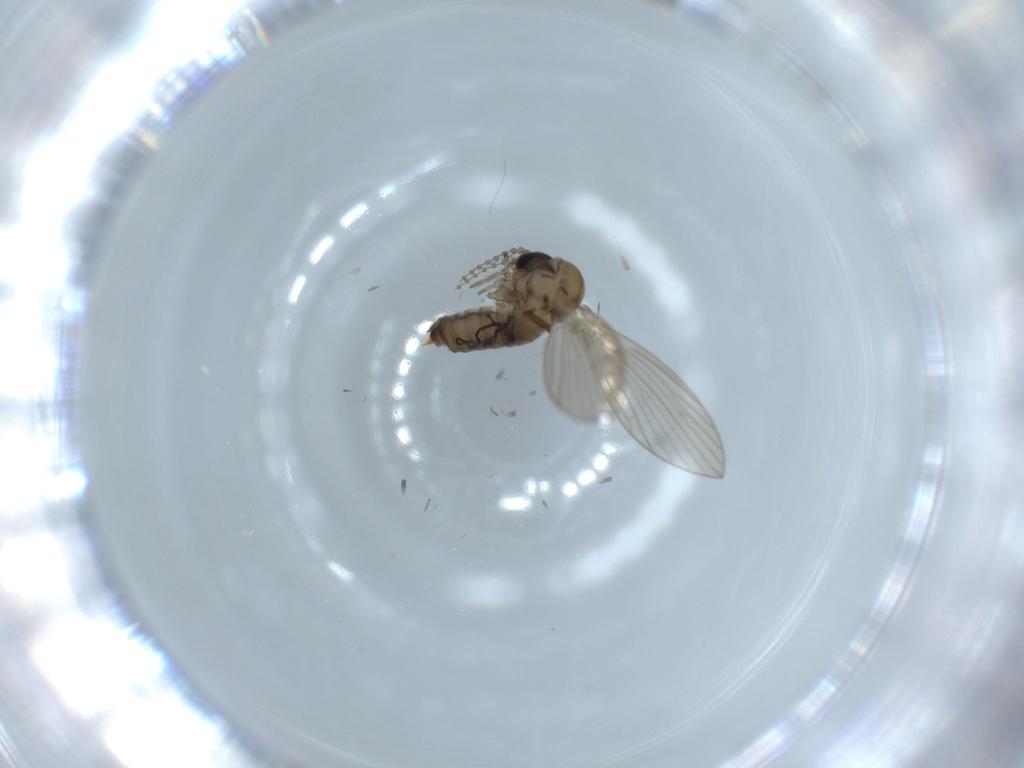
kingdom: Animalia
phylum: Arthropoda
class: Insecta
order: Diptera
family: Psychodidae
